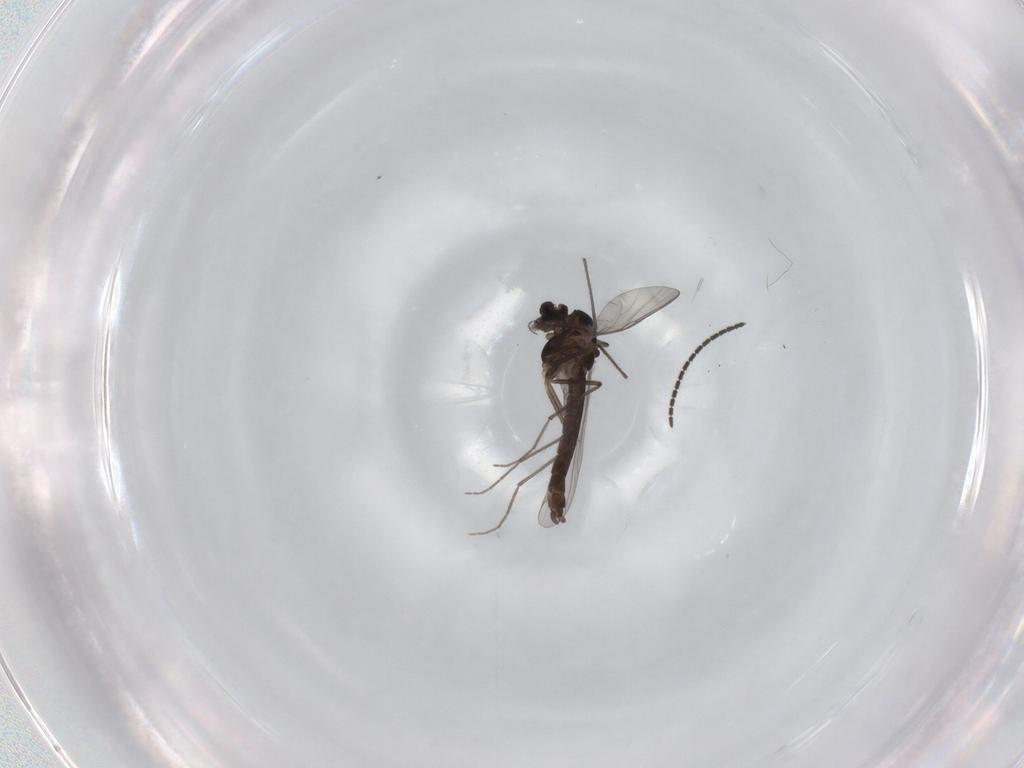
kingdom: Animalia
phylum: Arthropoda
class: Insecta
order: Diptera
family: Chironomidae
